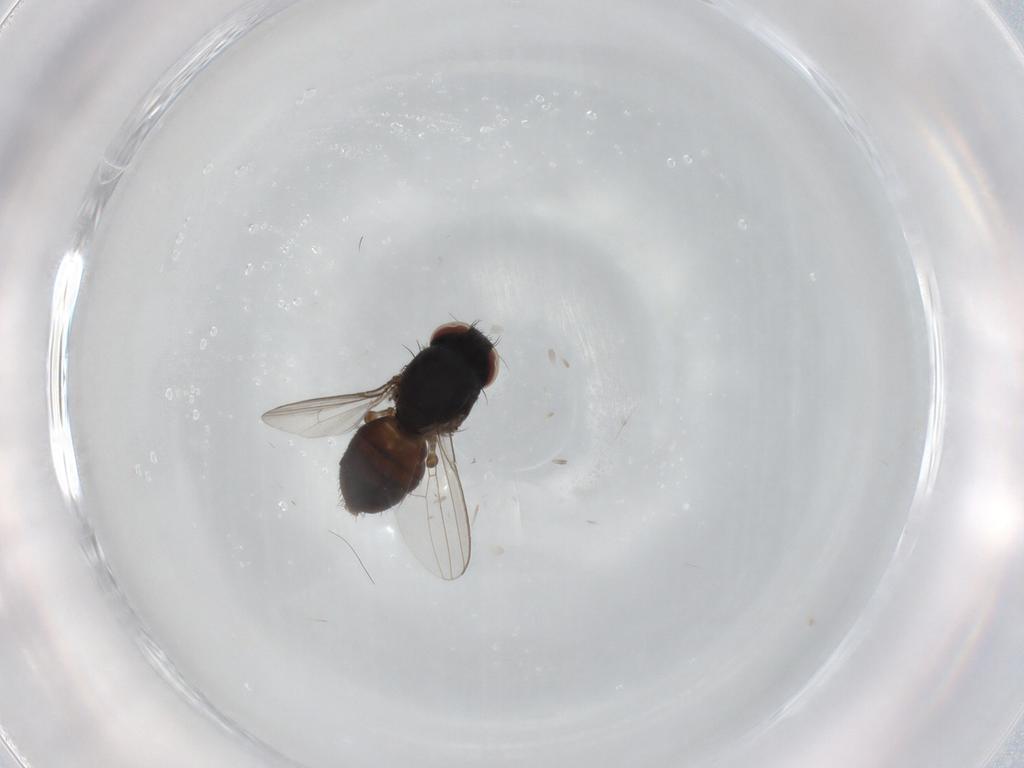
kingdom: Animalia
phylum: Arthropoda
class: Insecta
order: Diptera
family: Milichiidae
